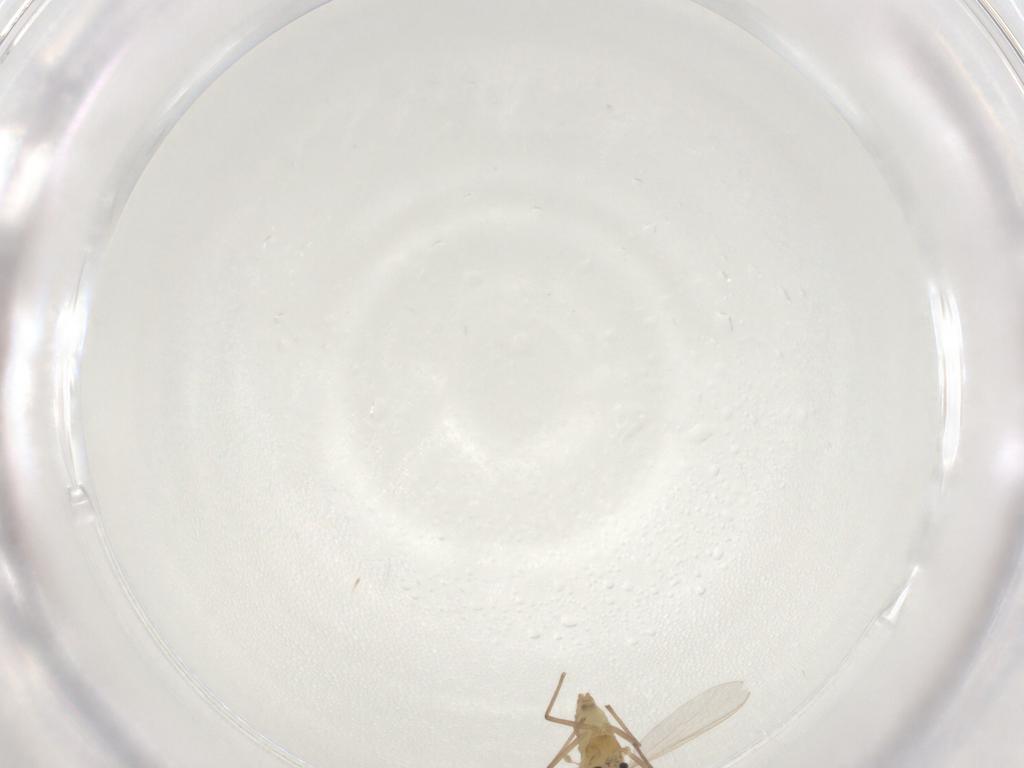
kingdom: Animalia
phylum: Arthropoda
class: Insecta
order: Diptera
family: Chironomidae
